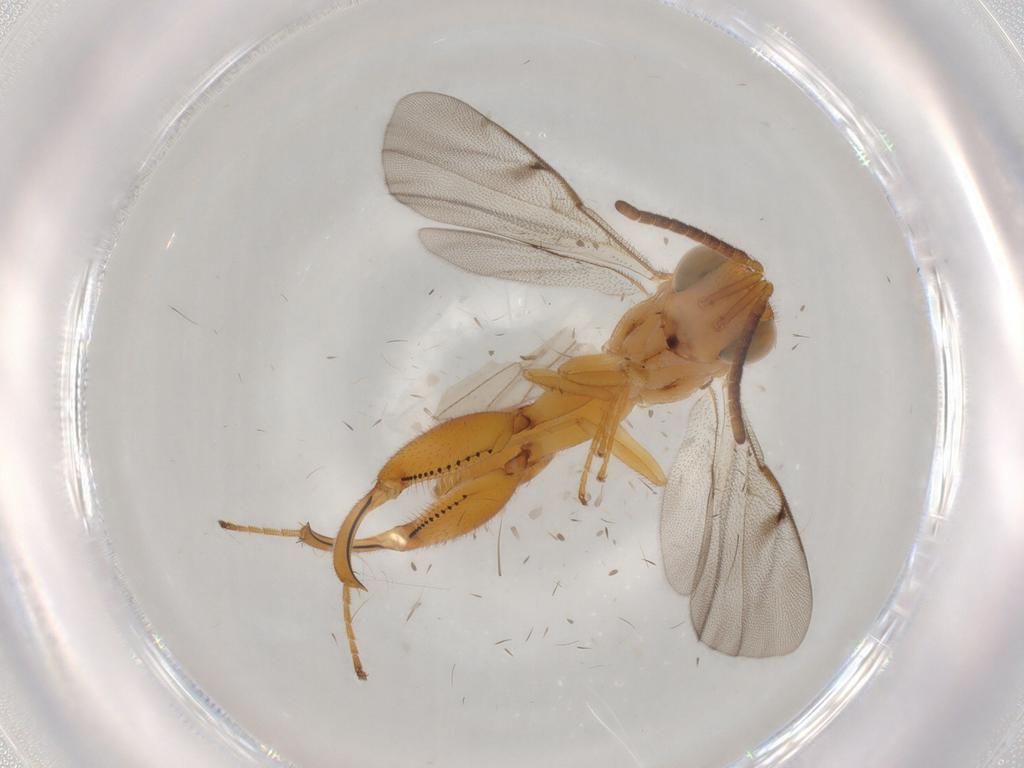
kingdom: Animalia
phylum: Arthropoda
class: Insecta
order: Hymenoptera
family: Chalcididae
